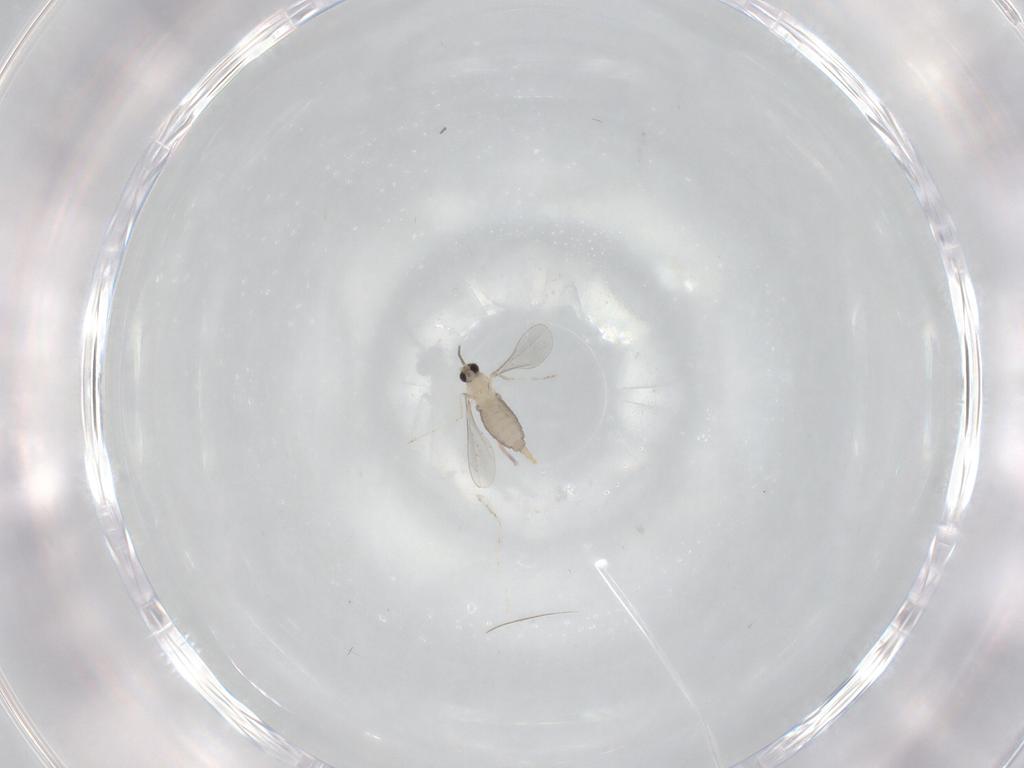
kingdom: Animalia
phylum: Arthropoda
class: Insecta
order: Diptera
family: Cecidomyiidae
